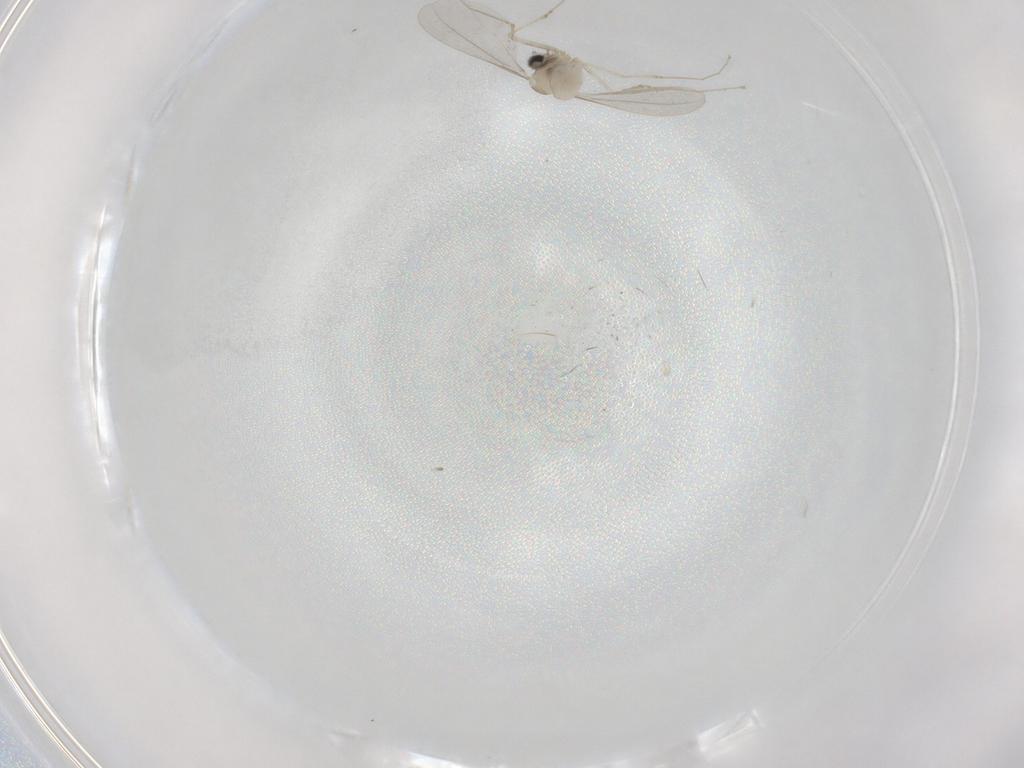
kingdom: Animalia
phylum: Arthropoda
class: Insecta
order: Diptera
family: Cecidomyiidae
